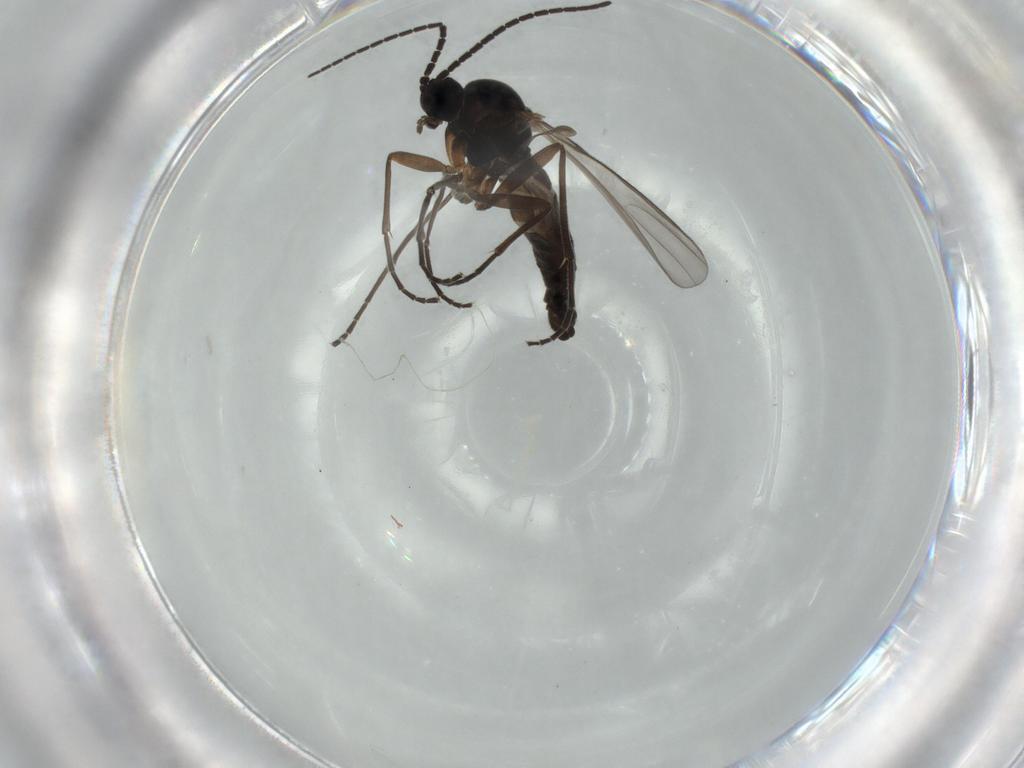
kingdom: Animalia
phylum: Arthropoda
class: Insecta
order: Diptera
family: Sciaridae
